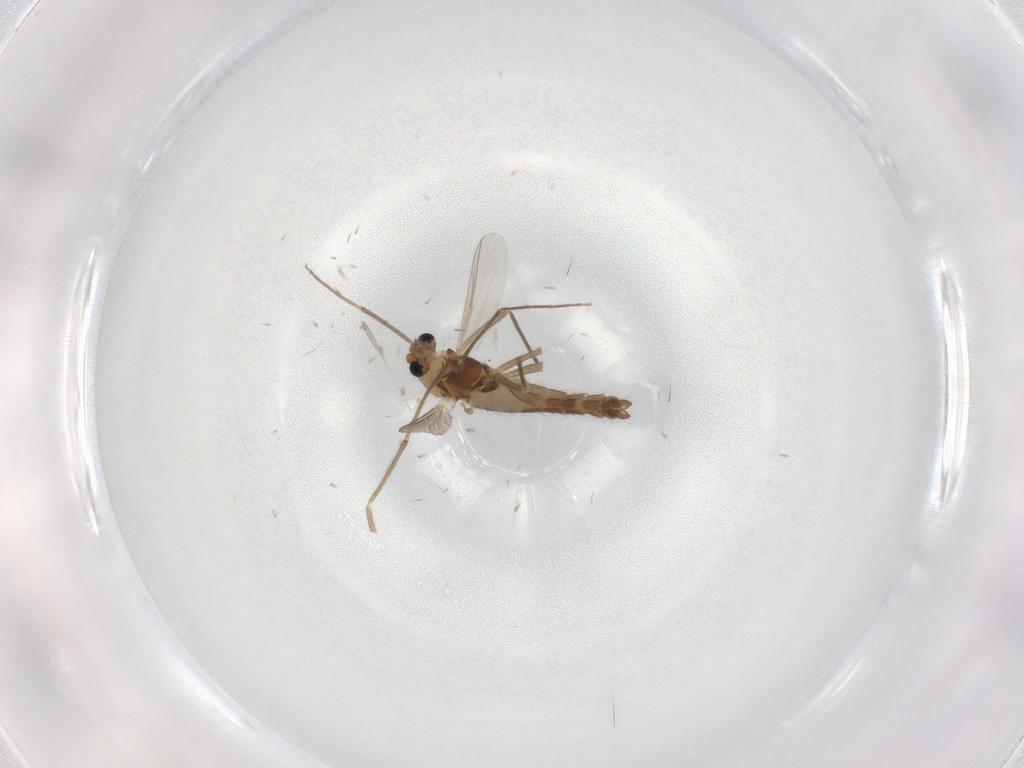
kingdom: Animalia
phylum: Arthropoda
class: Insecta
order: Diptera
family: Chironomidae
